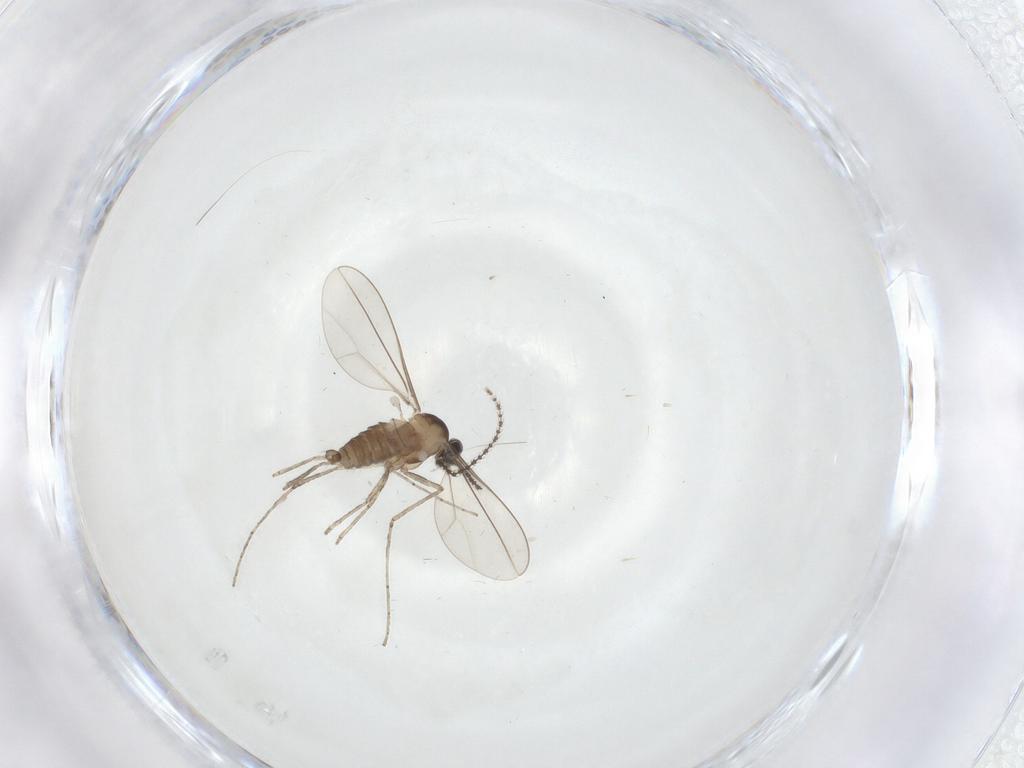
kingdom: Animalia
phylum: Arthropoda
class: Insecta
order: Diptera
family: Cecidomyiidae
